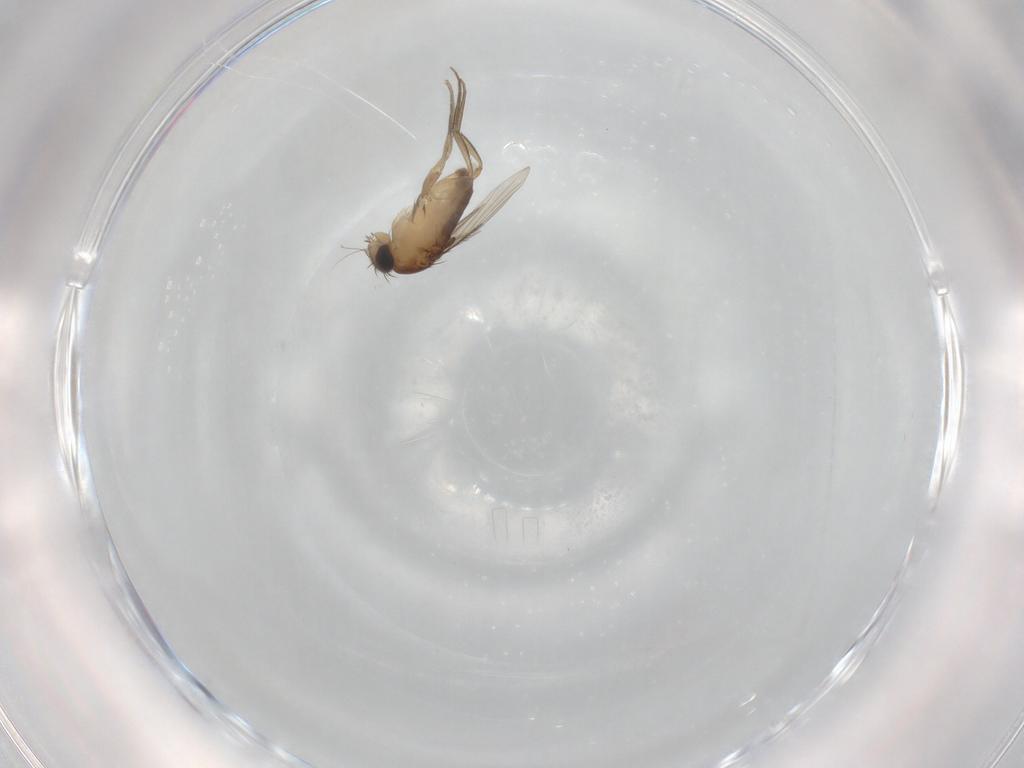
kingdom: Animalia
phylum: Arthropoda
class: Insecta
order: Diptera
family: Phoridae
